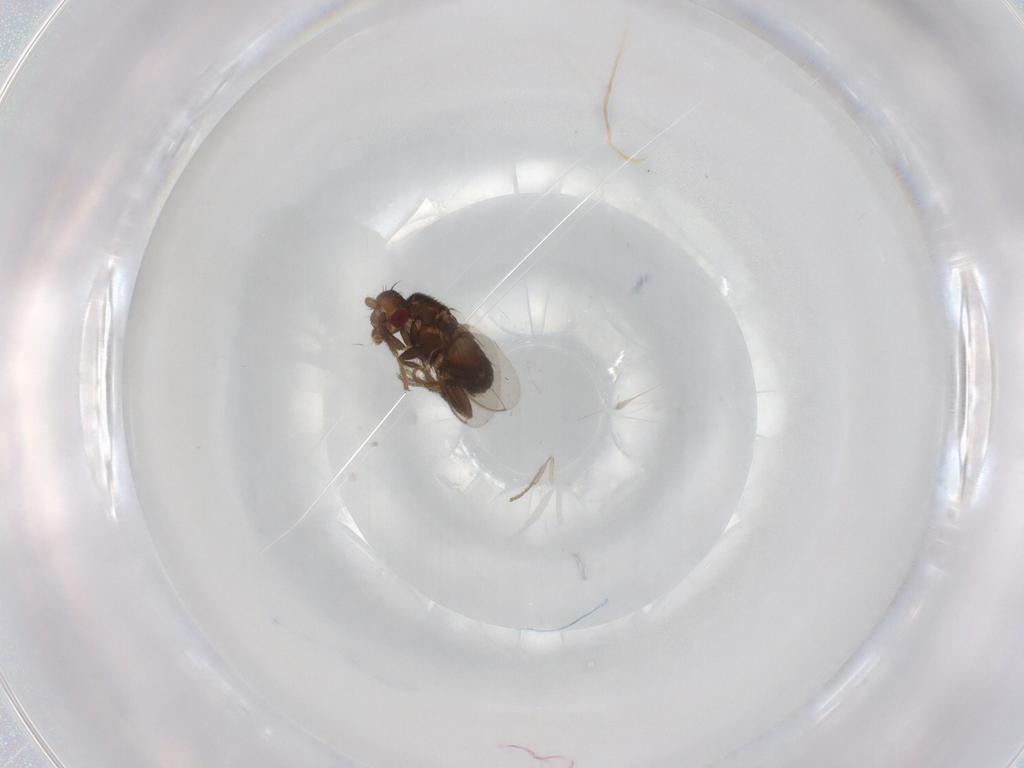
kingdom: Animalia
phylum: Arthropoda
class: Insecta
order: Diptera
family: Sphaeroceridae
